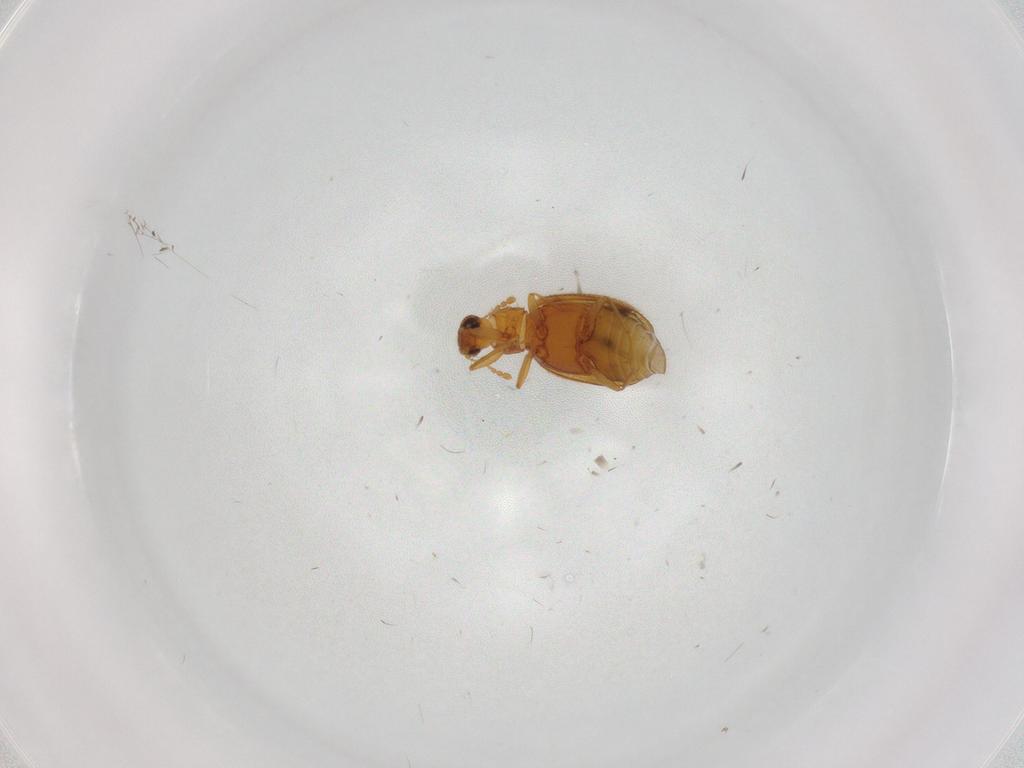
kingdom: Animalia
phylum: Arthropoda
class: Insecta
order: Coleoptera
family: Latridiidae
